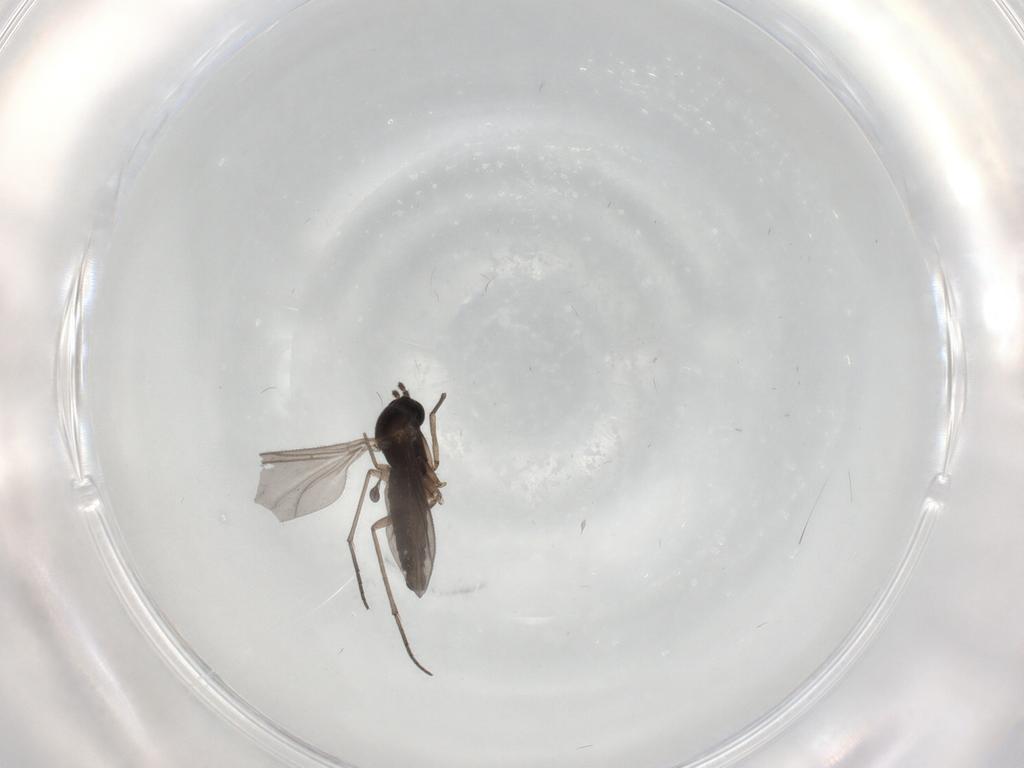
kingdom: Animalia
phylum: Arthropoda
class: Insecta
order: Diptera
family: Sciaridae
